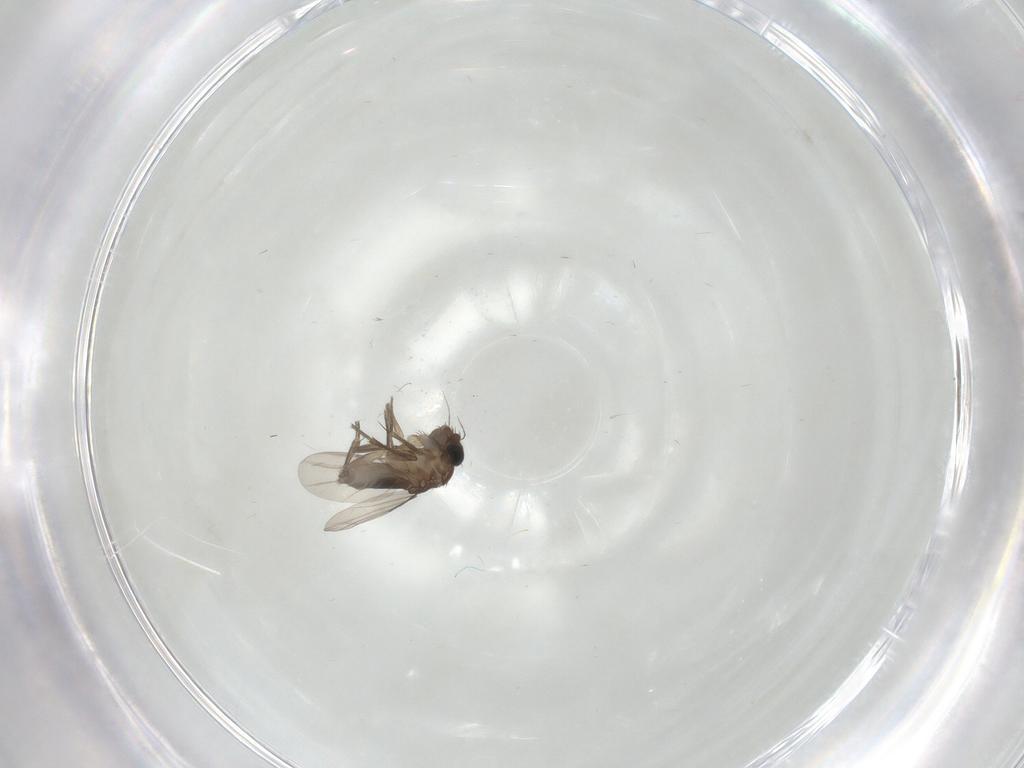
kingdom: Animalia
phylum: Arthropoda
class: Insecta
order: Diptera
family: Phoridae
